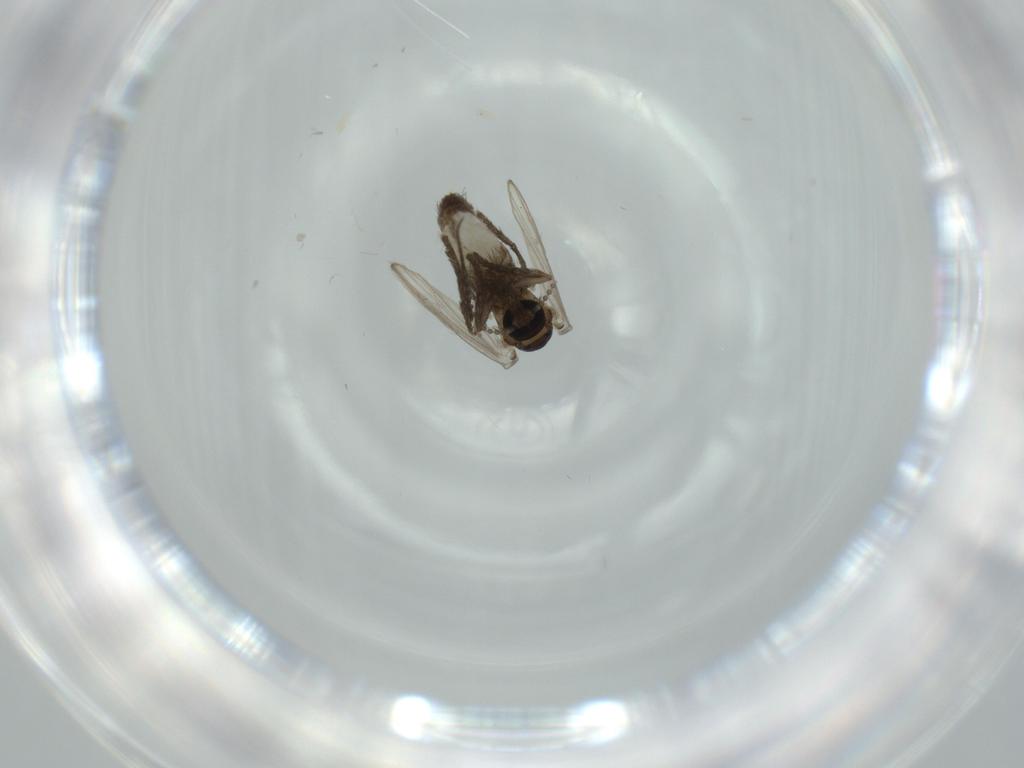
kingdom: Animalia
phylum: Arthropoda
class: Insecta
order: Diptera
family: Psychodidae
